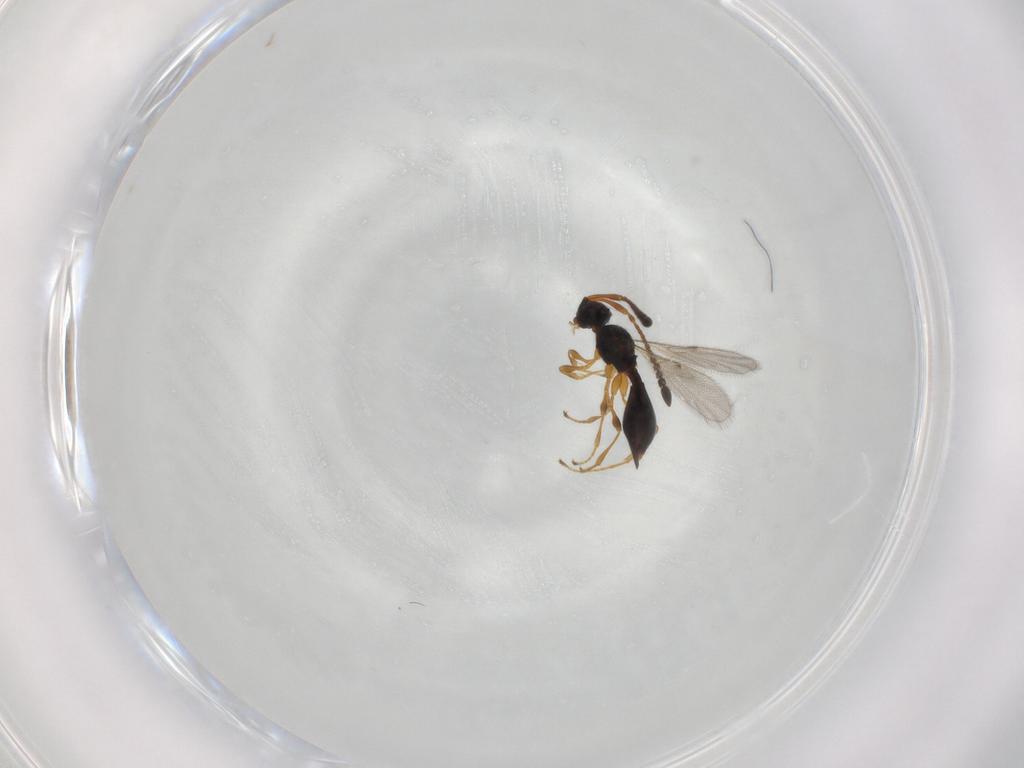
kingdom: Animalia
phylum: Arthropoda
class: Insecta
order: Hymenoptera
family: Diapriidae
